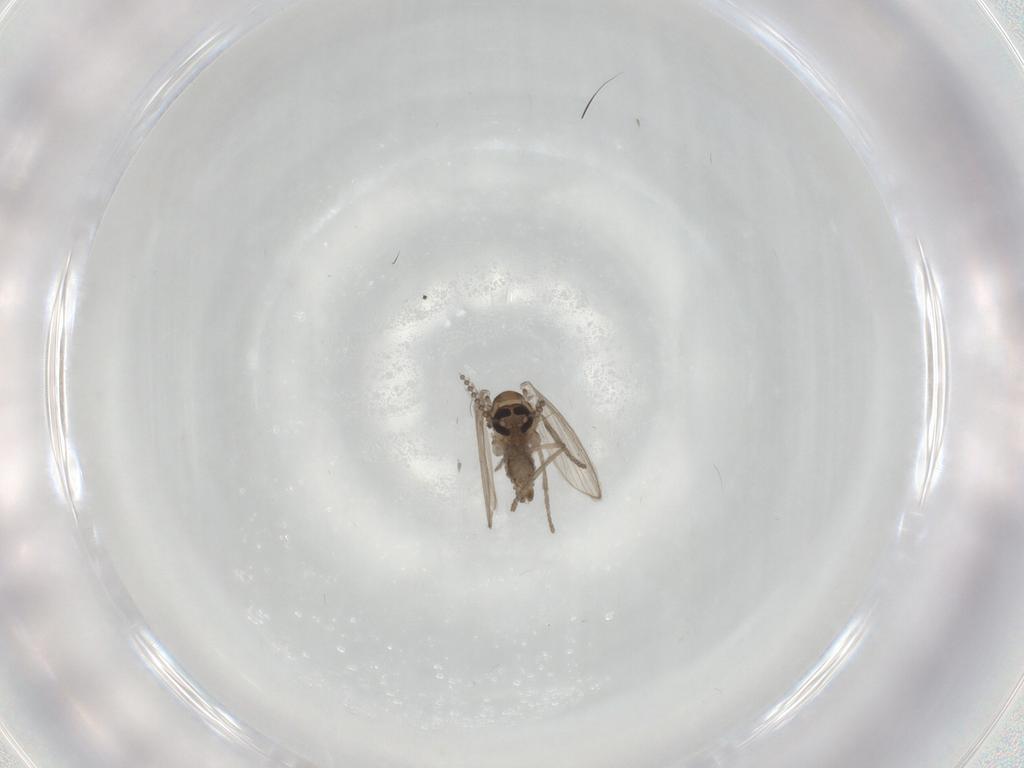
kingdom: Animalia
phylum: Arthropoda
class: Insecta
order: Diptera
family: Psychodidae
